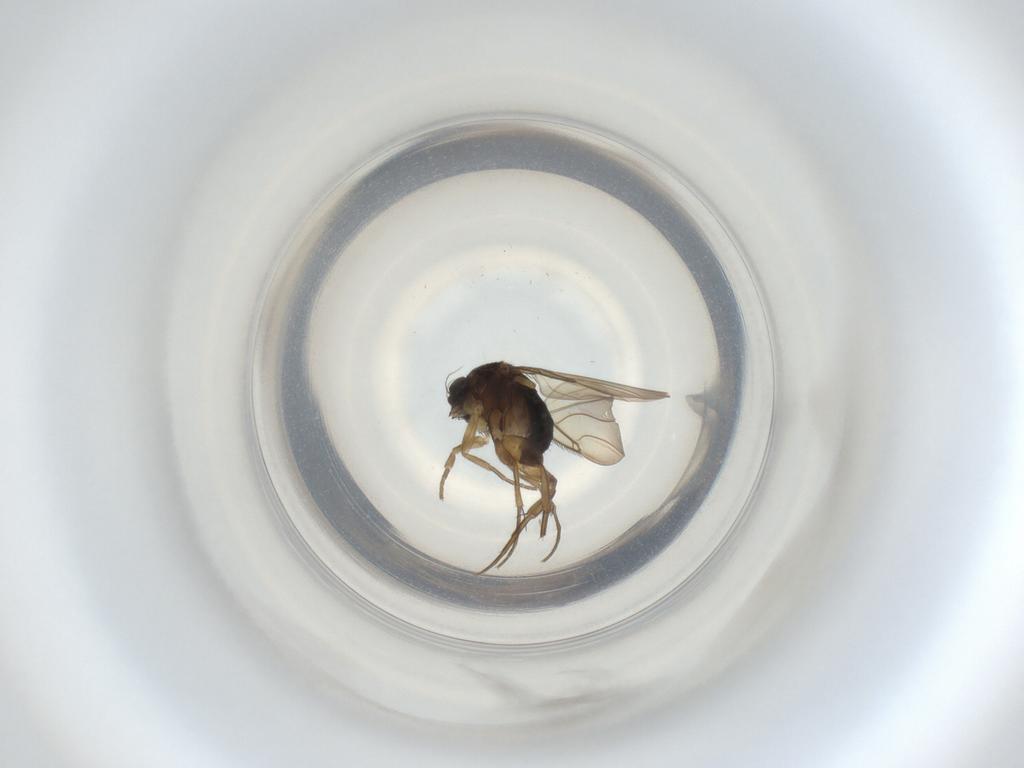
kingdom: Animalia
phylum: Arthropoda
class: Insecta
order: Diptera
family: Phoridae
